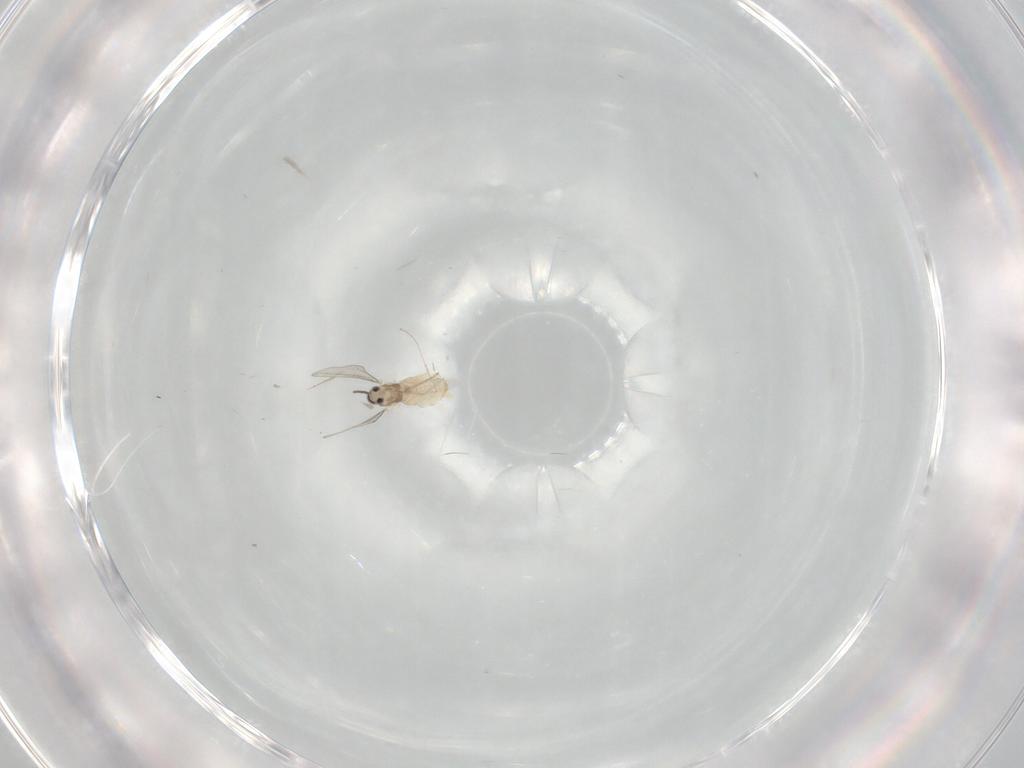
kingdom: Animalia
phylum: Arthropoda
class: Insecta
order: Diptera
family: Cecidomyiidae
